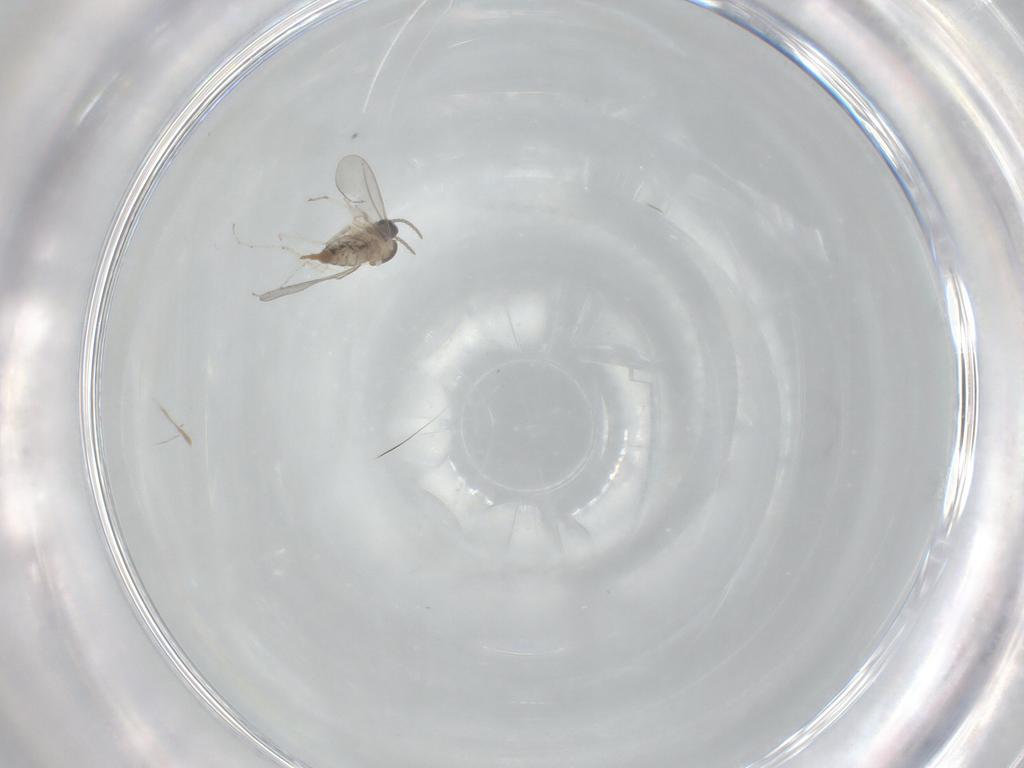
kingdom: Animalia
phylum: Arthropoda
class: Insecta
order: Diptera
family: Cecidomyiidae
